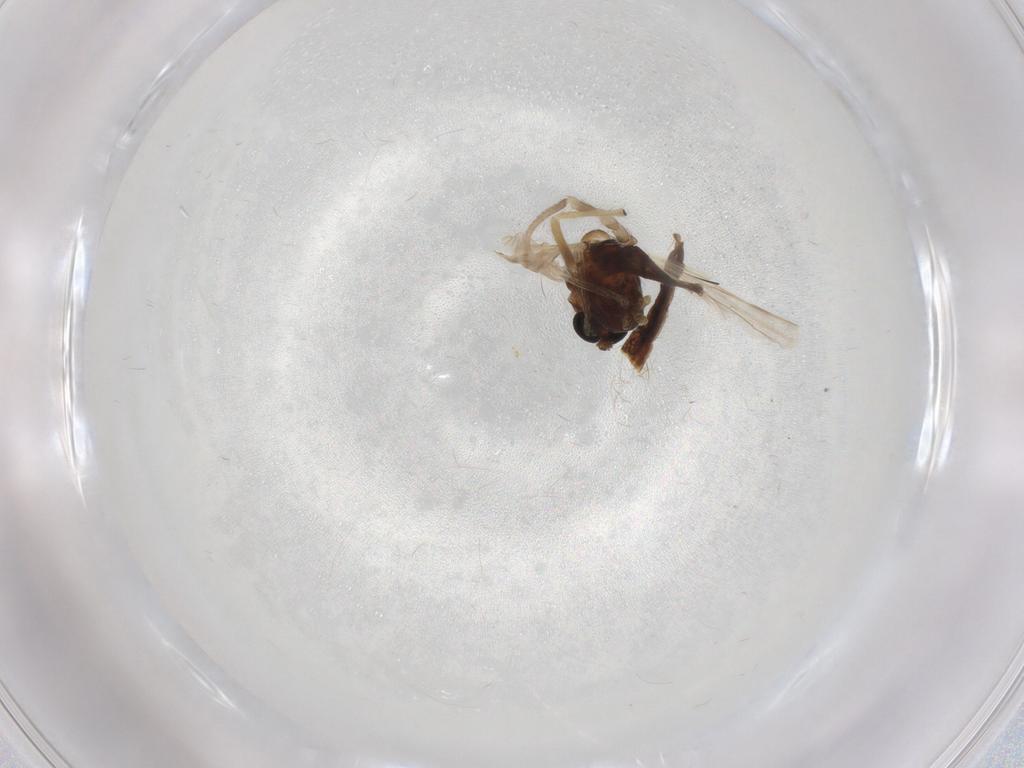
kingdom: Animalia
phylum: Arthropoda
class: Insecta
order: Diptera
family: Chironomidae
